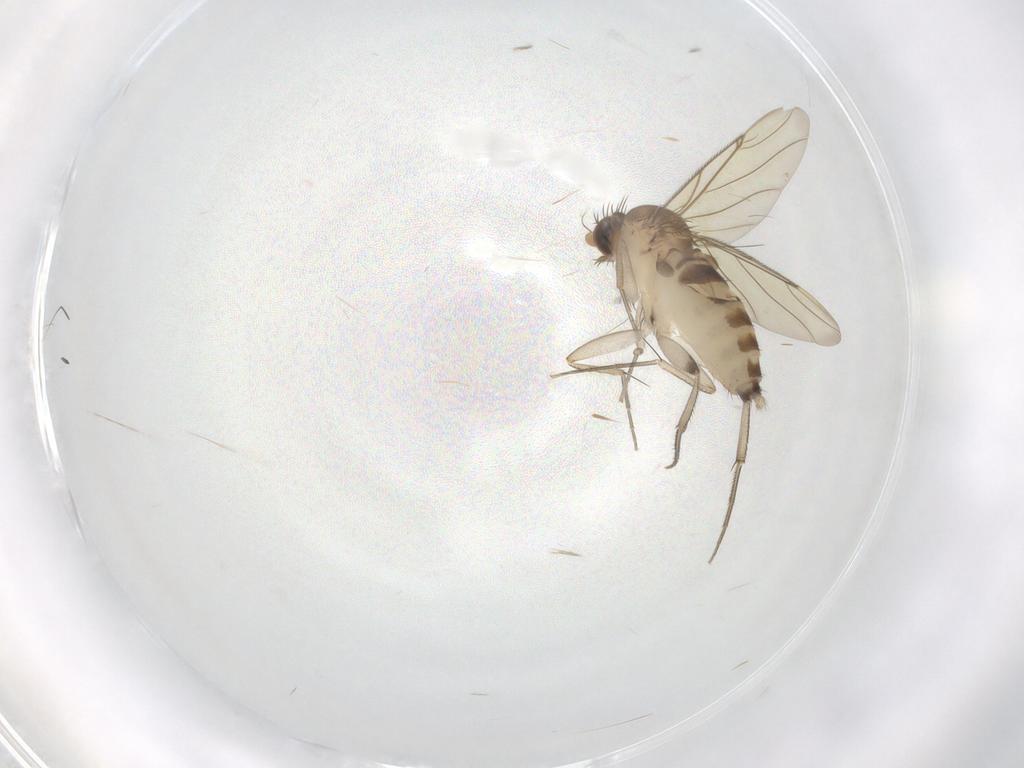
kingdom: Animalia
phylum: Arthropoda
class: Insecta
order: Diptera
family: Phoridae
